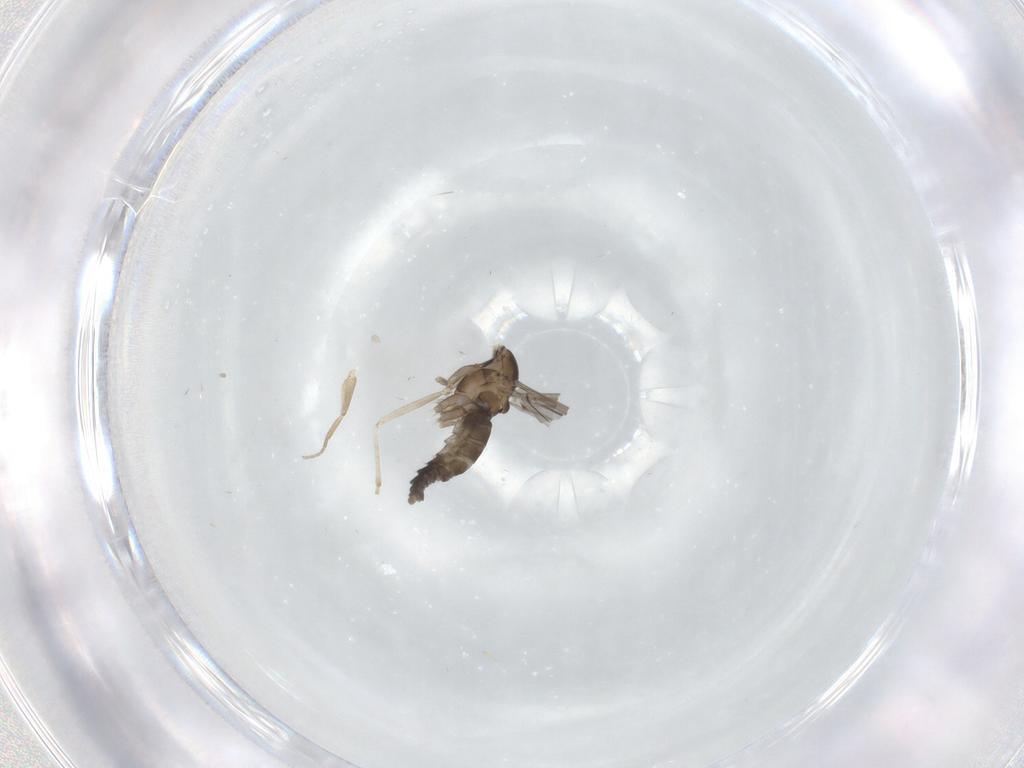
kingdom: Animalia
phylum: Arthropoda
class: Insecta
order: Diptera
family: Phoridae
